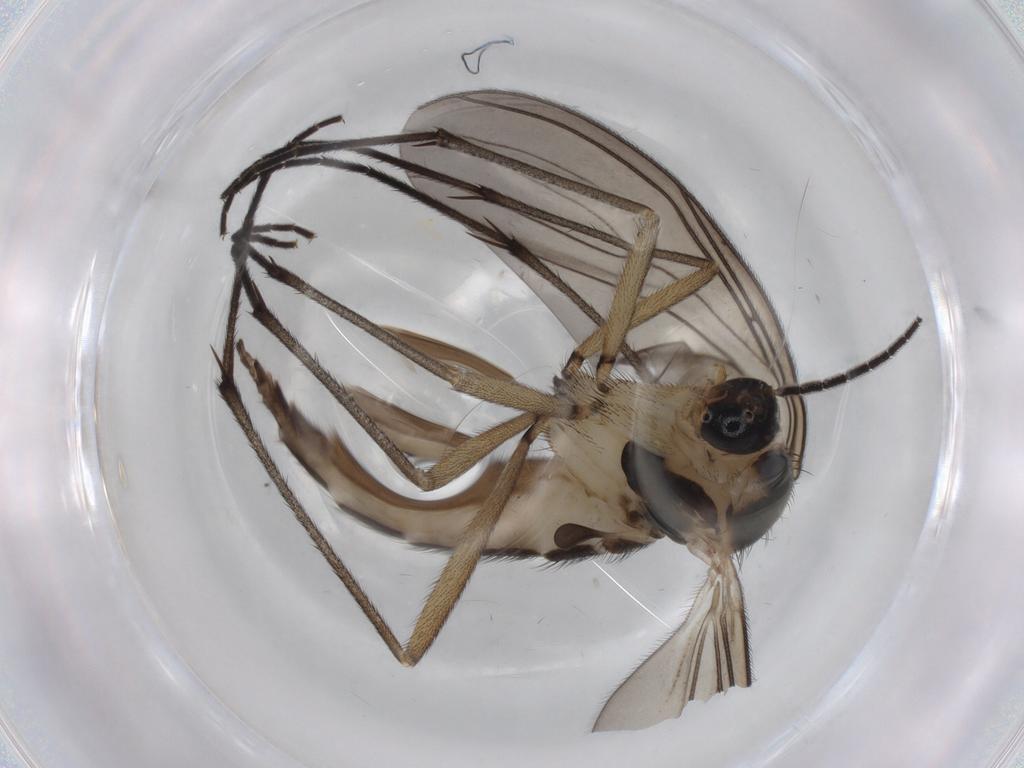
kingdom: Animalia
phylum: Arthropoda
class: Insecta
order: Diptera
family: Sciaridae
